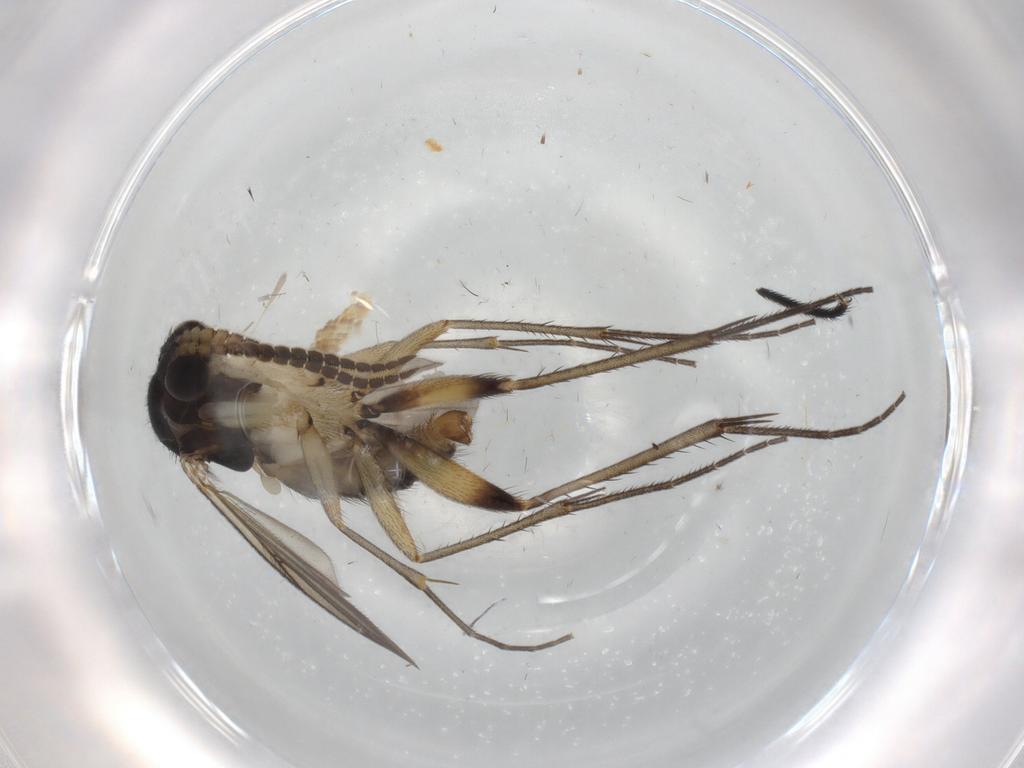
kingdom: Animalia
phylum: Arthropoda
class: Insecta
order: Diptera
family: Mycetophilidae
